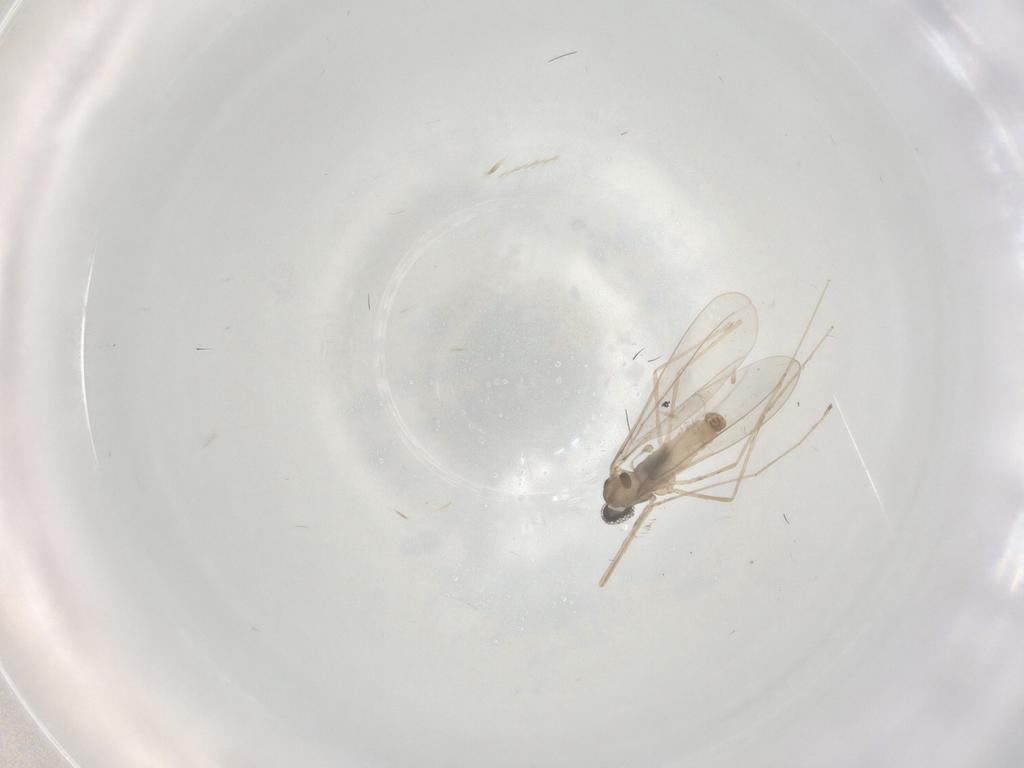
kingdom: Animalia
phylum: Arthropoda
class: Insecta
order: Diptera
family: Cecidomyiidae
